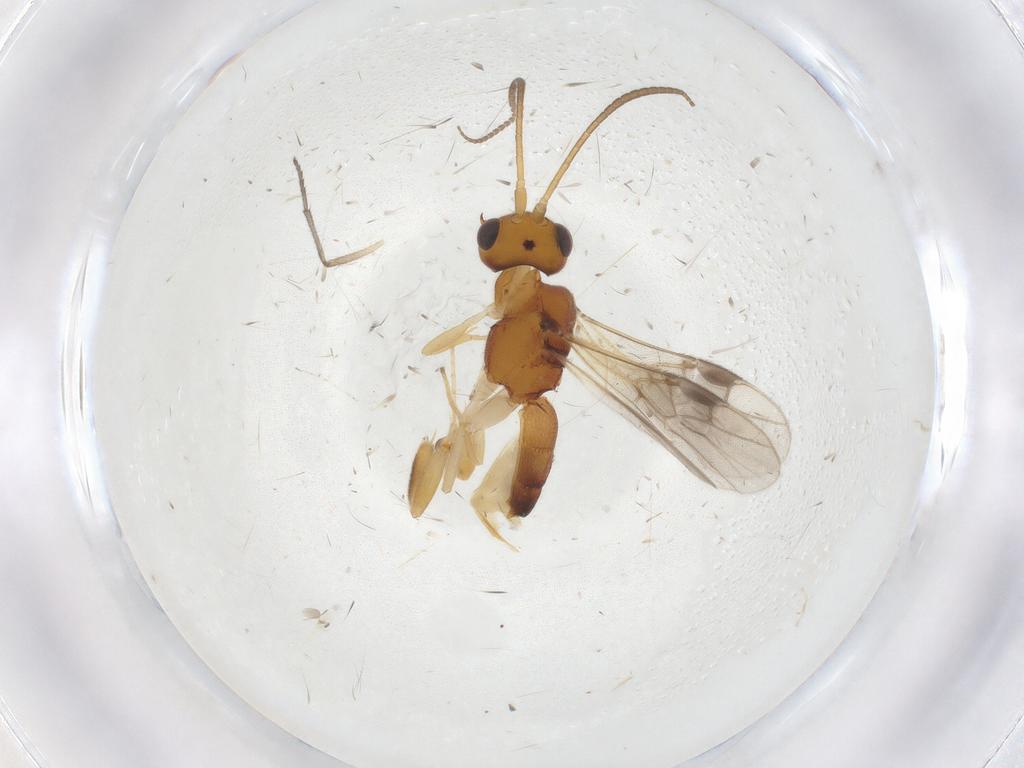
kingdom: Animalia
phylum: Arthropoda
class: Insecta
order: Hymenoptera
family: Braconidae
